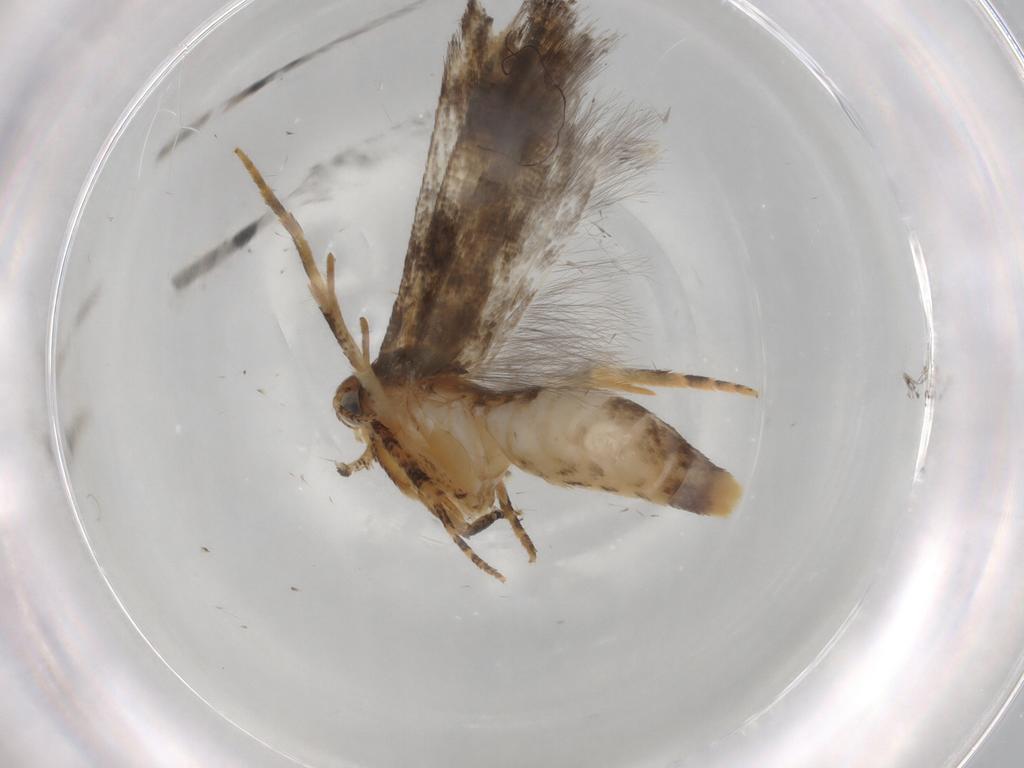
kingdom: Animalia
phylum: Arthropoda
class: Insecta
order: Lepidoptera
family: Gelechiidae
